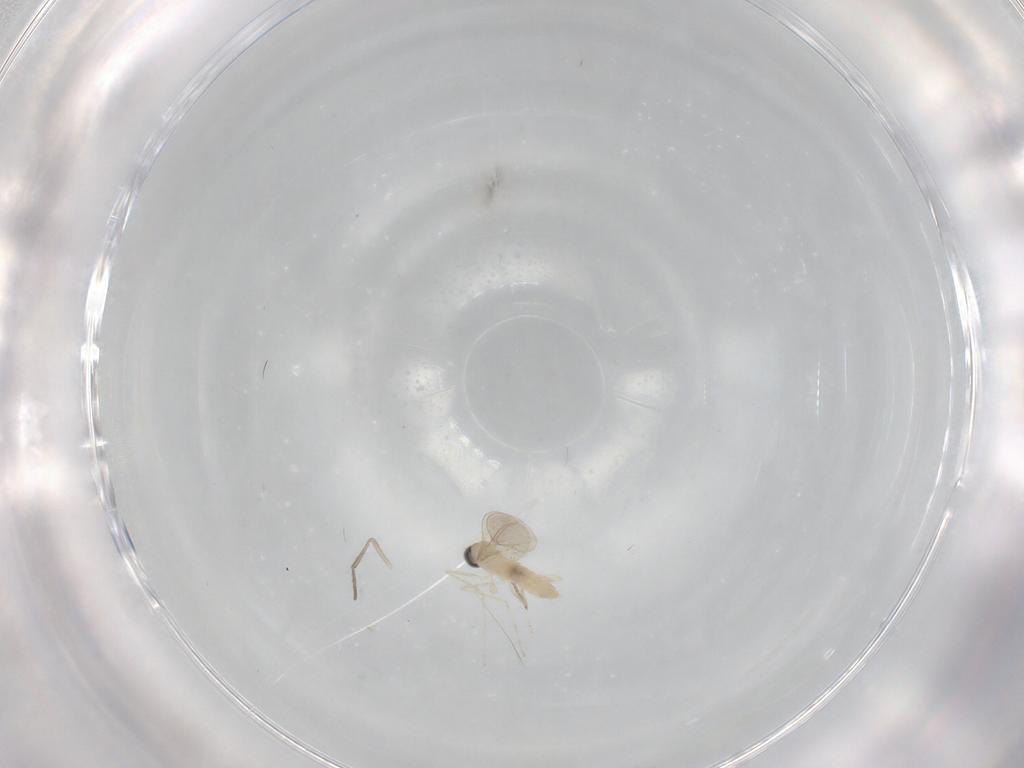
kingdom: Animalia
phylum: Arthropoda
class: Insecta
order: Diptera
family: Cecidomyiidae
